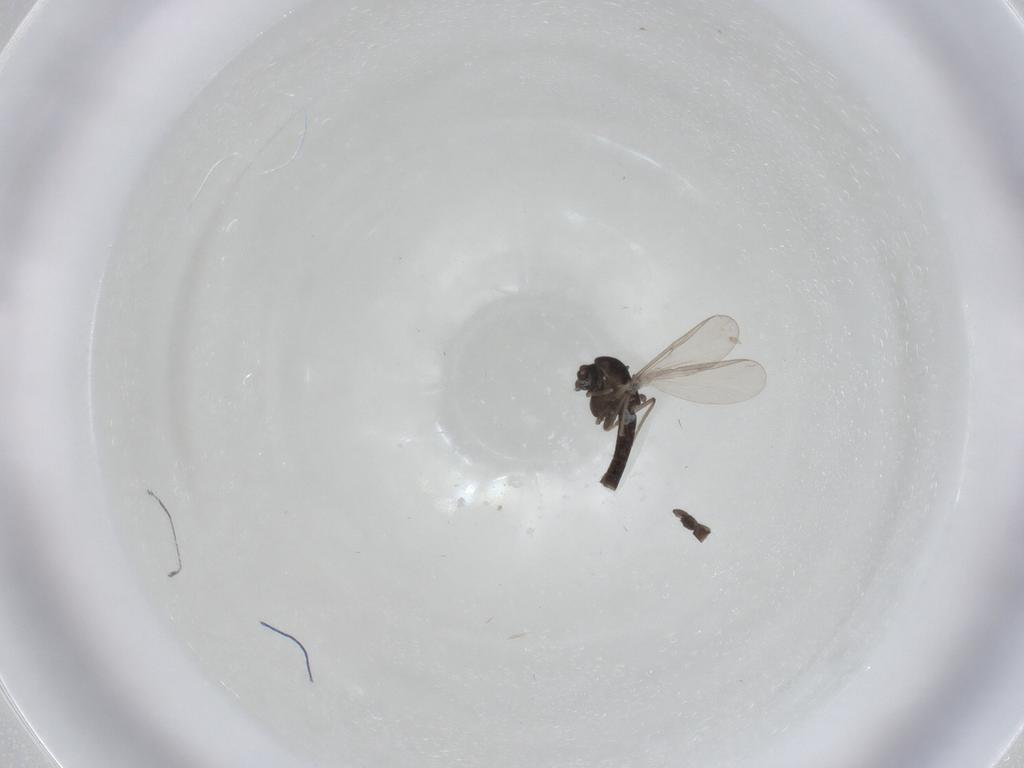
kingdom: Animalia
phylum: Arthropoda
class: Insecta
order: Diptera
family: Chironomidae
